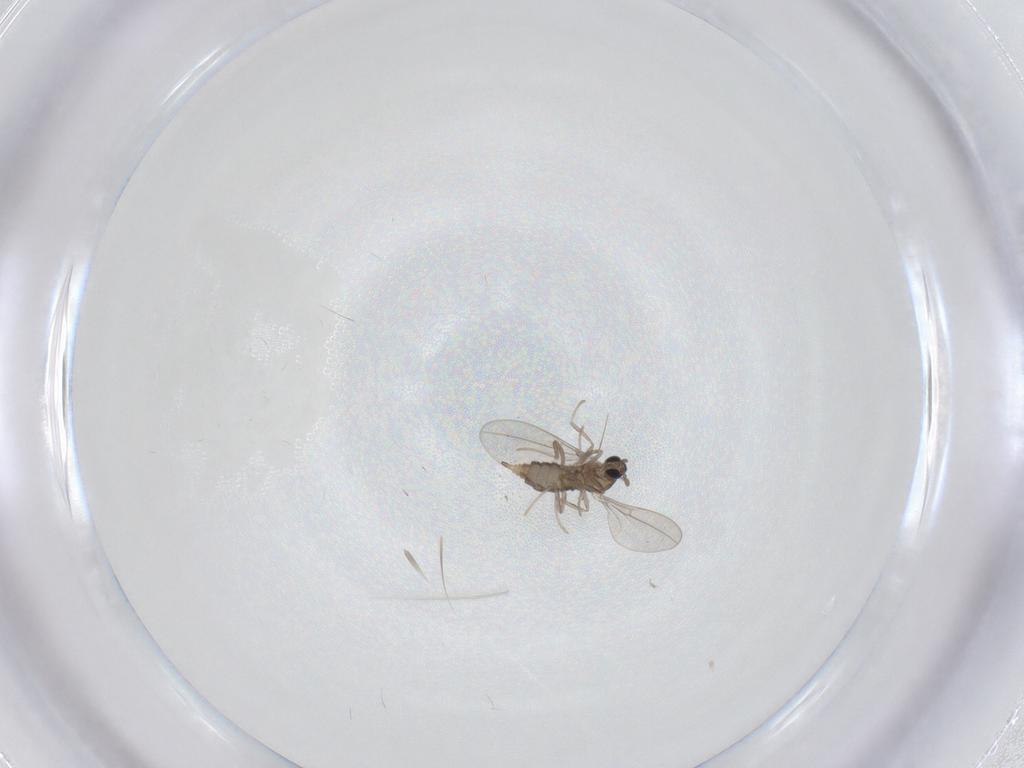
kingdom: Animalia
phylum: Arthropoda
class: Insecta
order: Diptera
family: Cecidomyiidae
